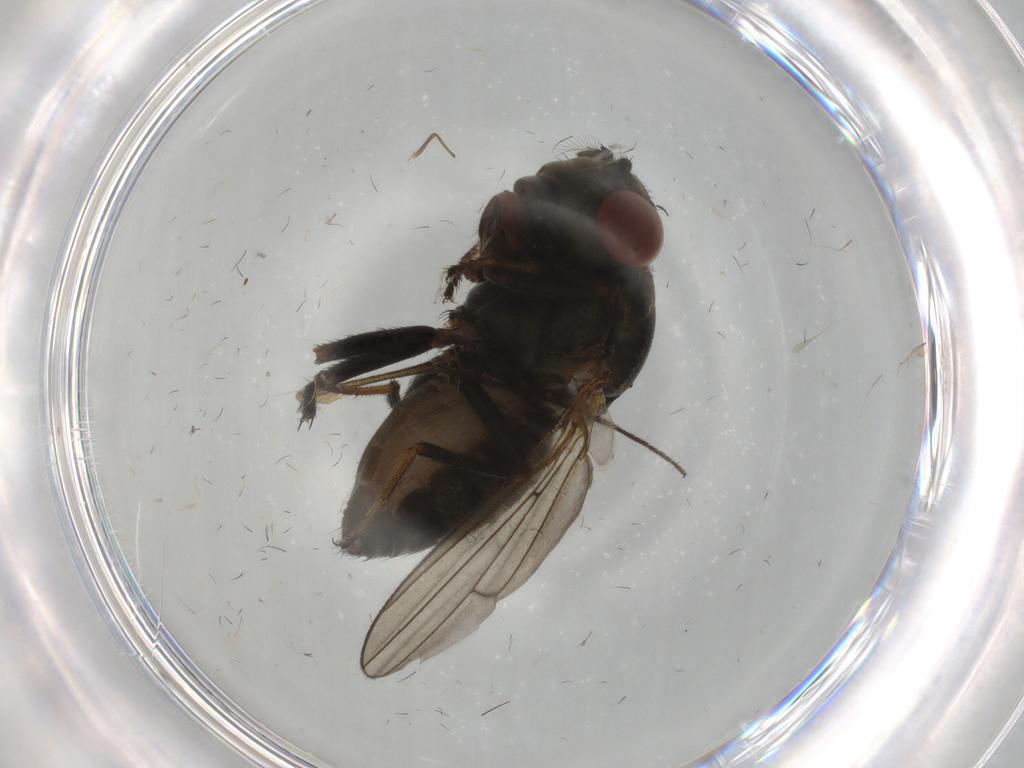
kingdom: Animalia
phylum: Arthropoda
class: Insecta
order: Diptera
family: Ephydridae
